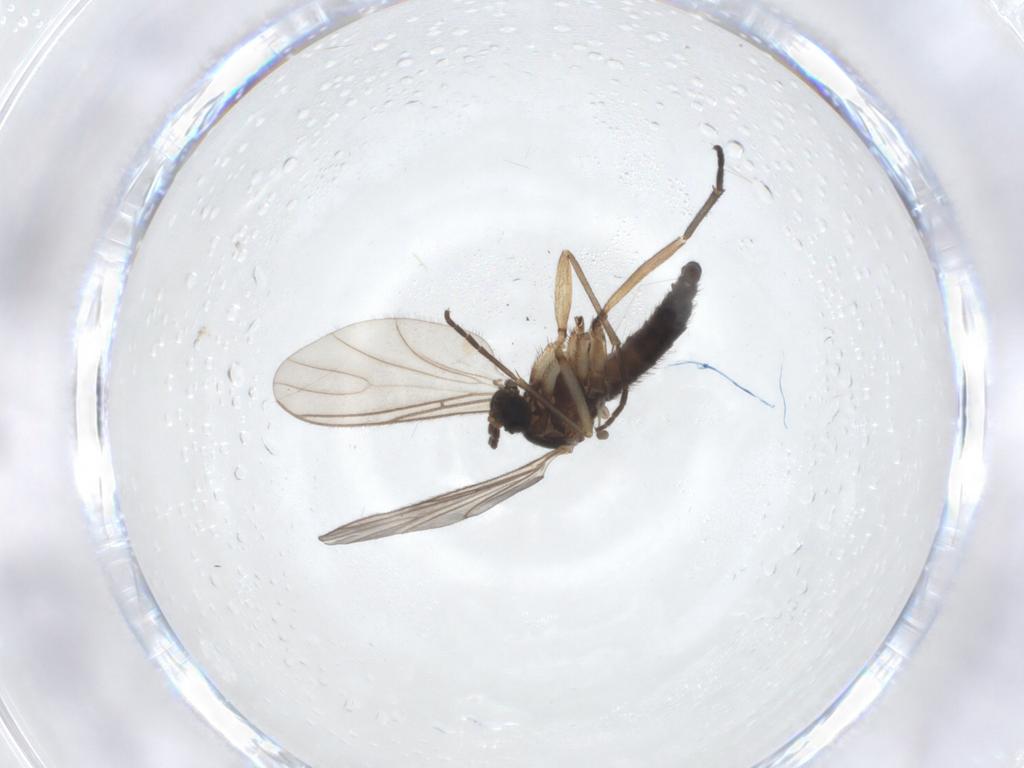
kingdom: Animalia
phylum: Arthropoda
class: Insecta
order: Diptera
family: Sciaridae
